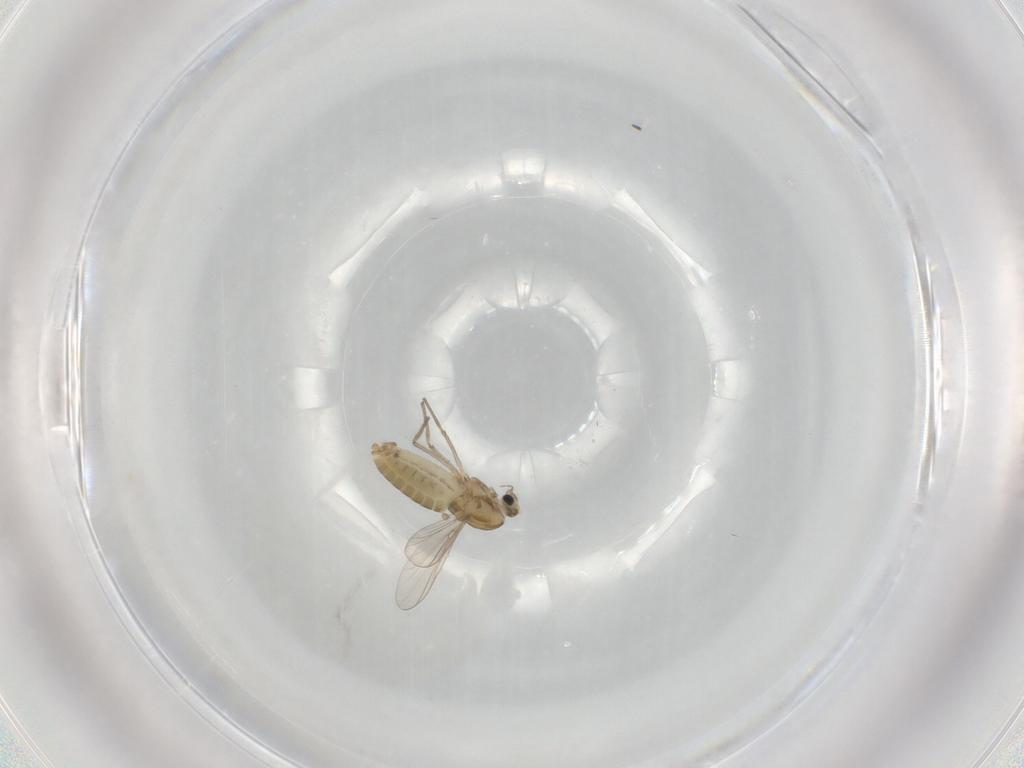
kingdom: Animalia
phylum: Arthropoda
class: Insecta
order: Diptera
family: Chironomidae
